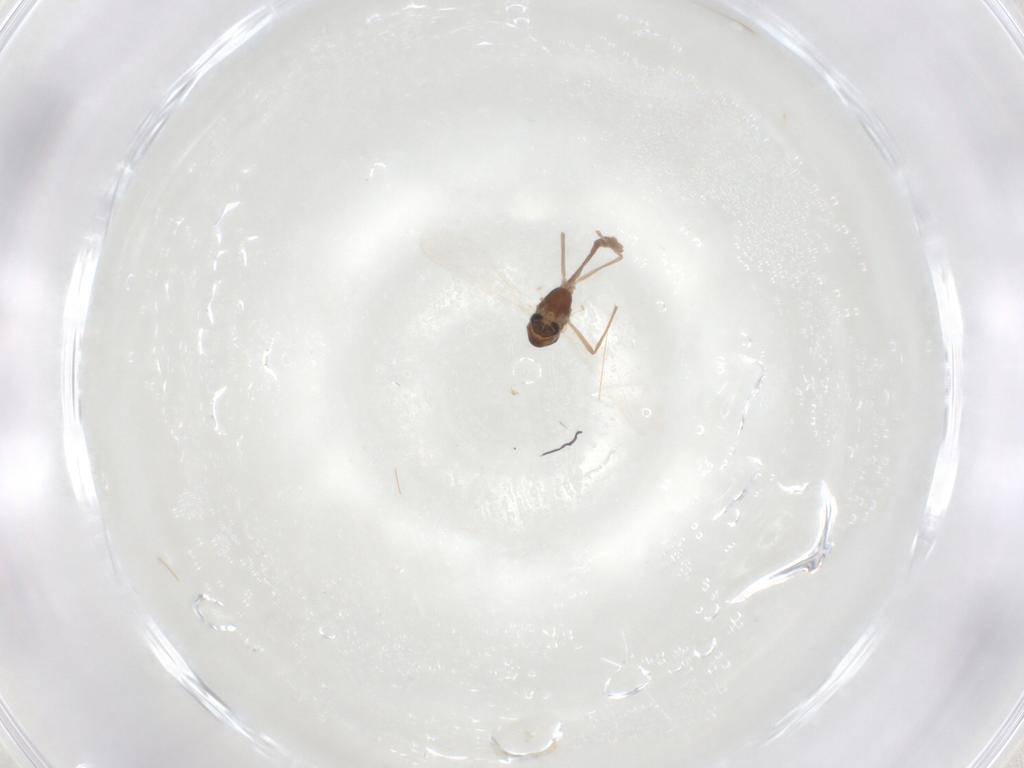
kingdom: Animalia
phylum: Arthropoda
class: Insecta
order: Diptera
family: Chironomidae
